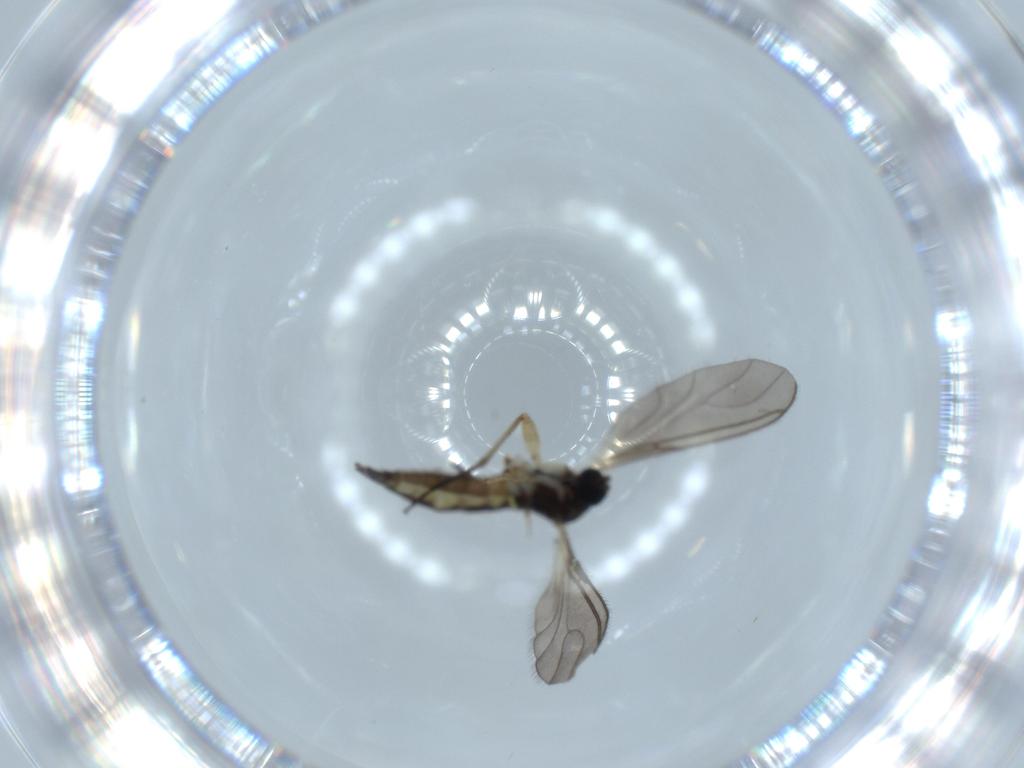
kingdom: Animalia
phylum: Arthropoda
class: Insecta
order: Diptera
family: Sciaridae
